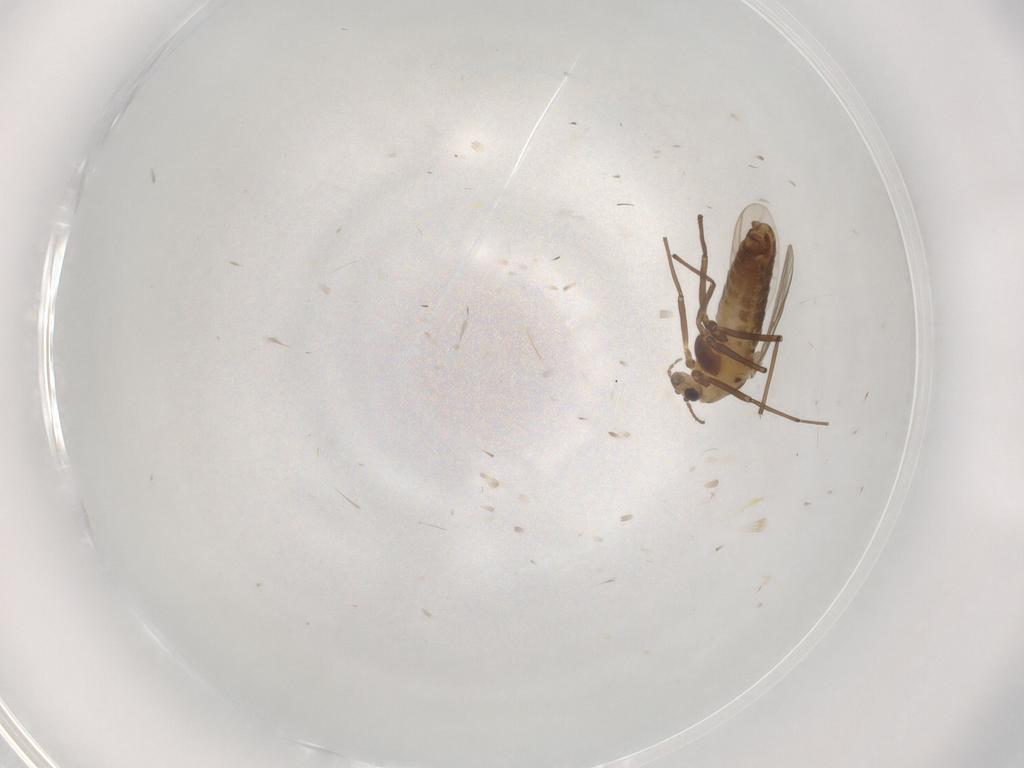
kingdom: Animalia
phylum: Arthropoda
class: Insecta
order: Diptera
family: Chironomidae
